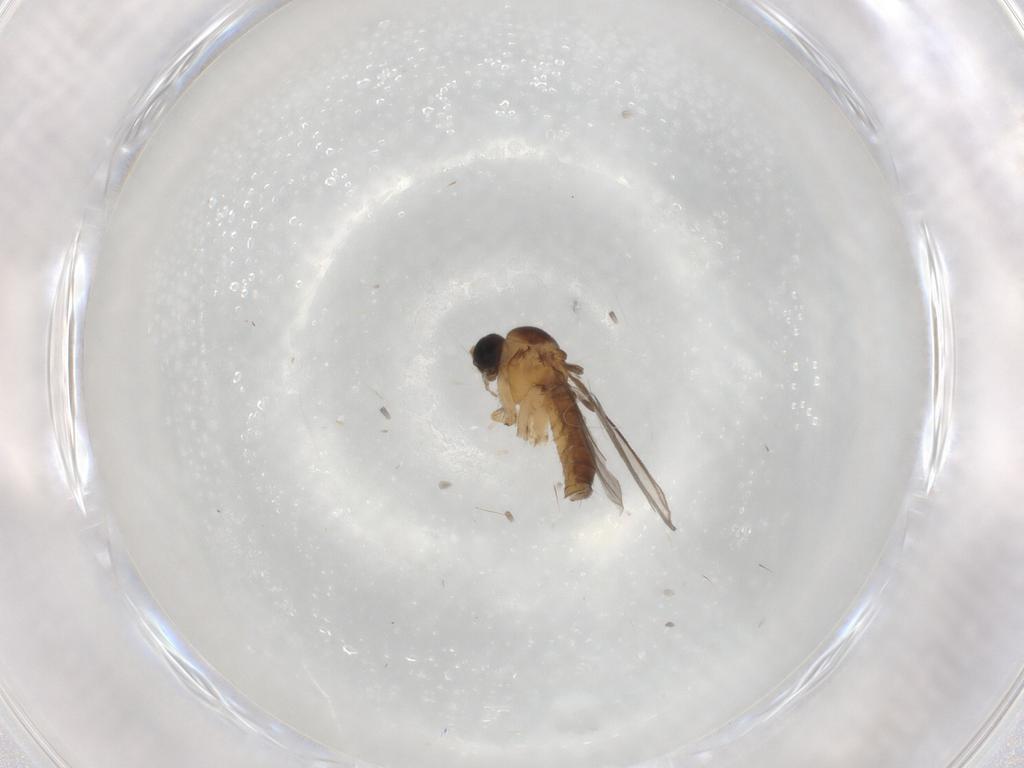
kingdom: Animalia
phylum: Arthropoda
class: Insecta
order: Diptera
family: Sciaridae
